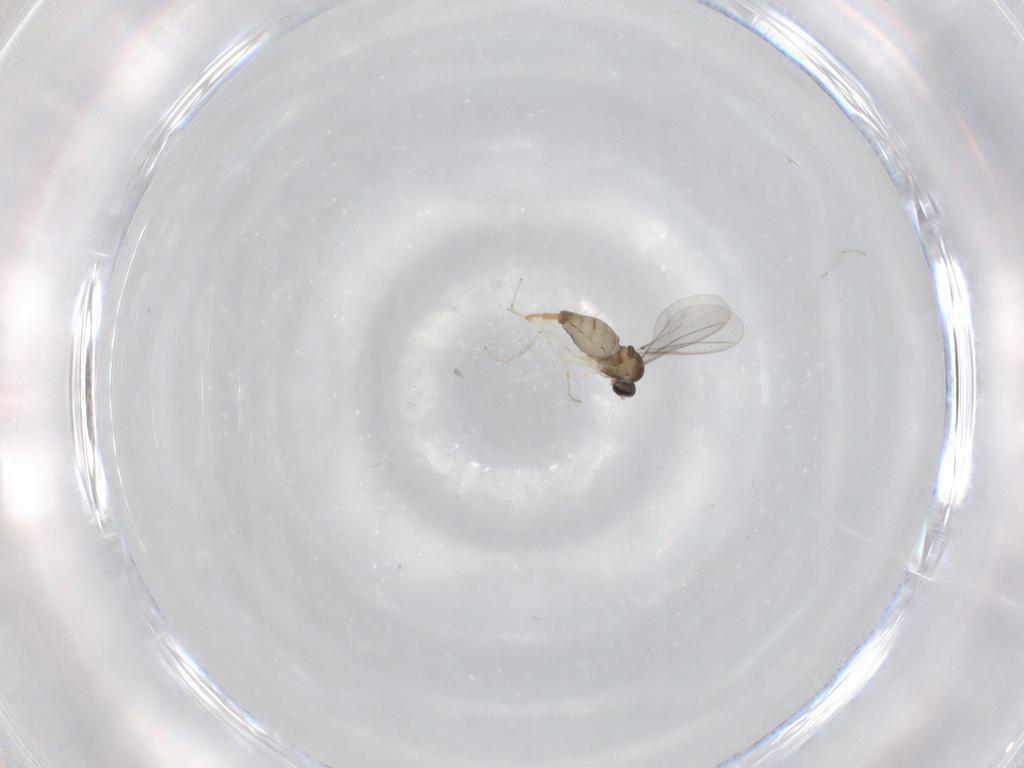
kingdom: Animalia
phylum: Arthropoda
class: Insecta
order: Diptera
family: Cecidomyiidae
